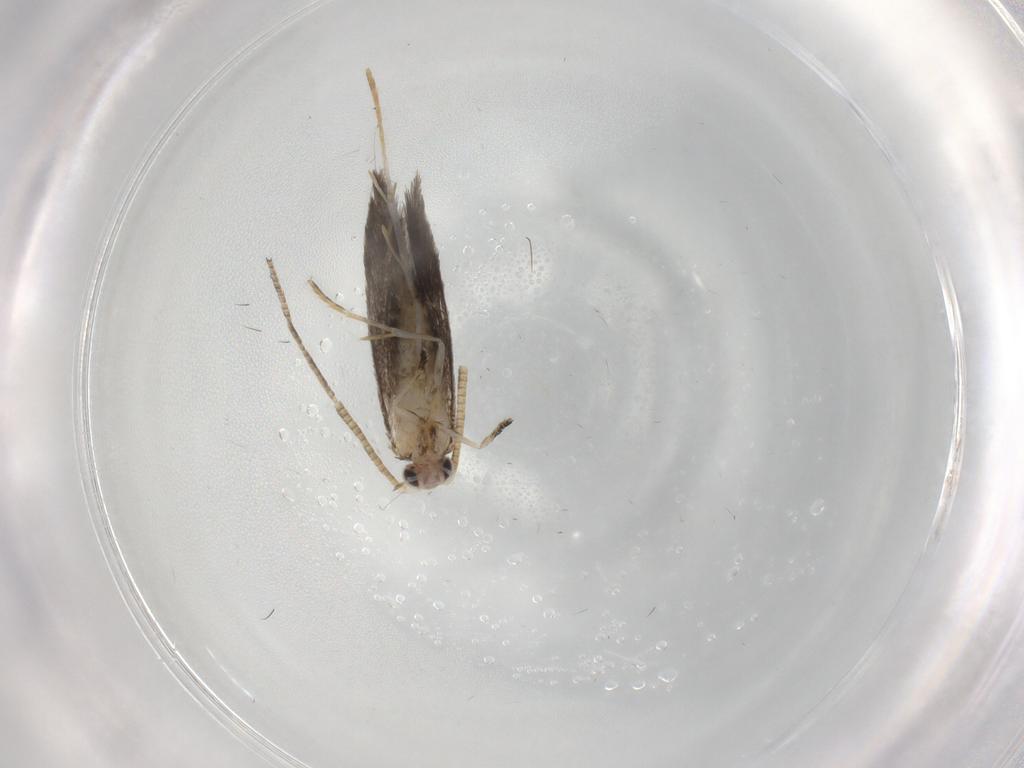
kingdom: Animalia
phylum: Arthropoda
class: Insecta
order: Lepidoptera
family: Tineidae
